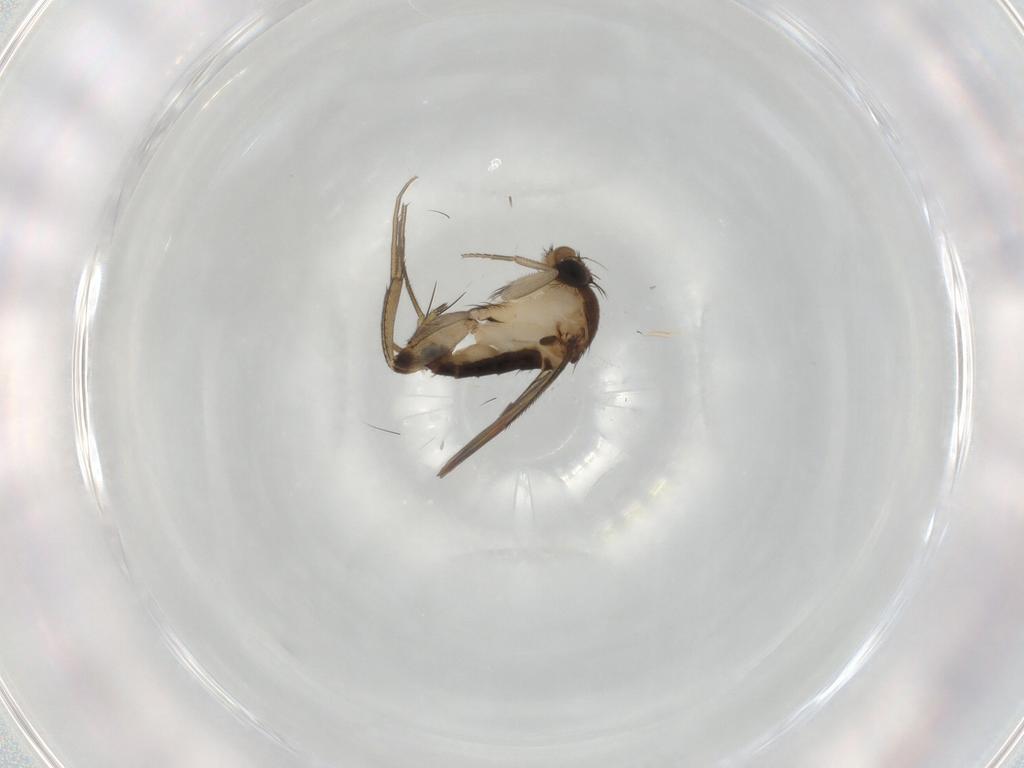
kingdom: Animalia
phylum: Arthropoda
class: Insecta
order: Diptera
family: Phoridae
